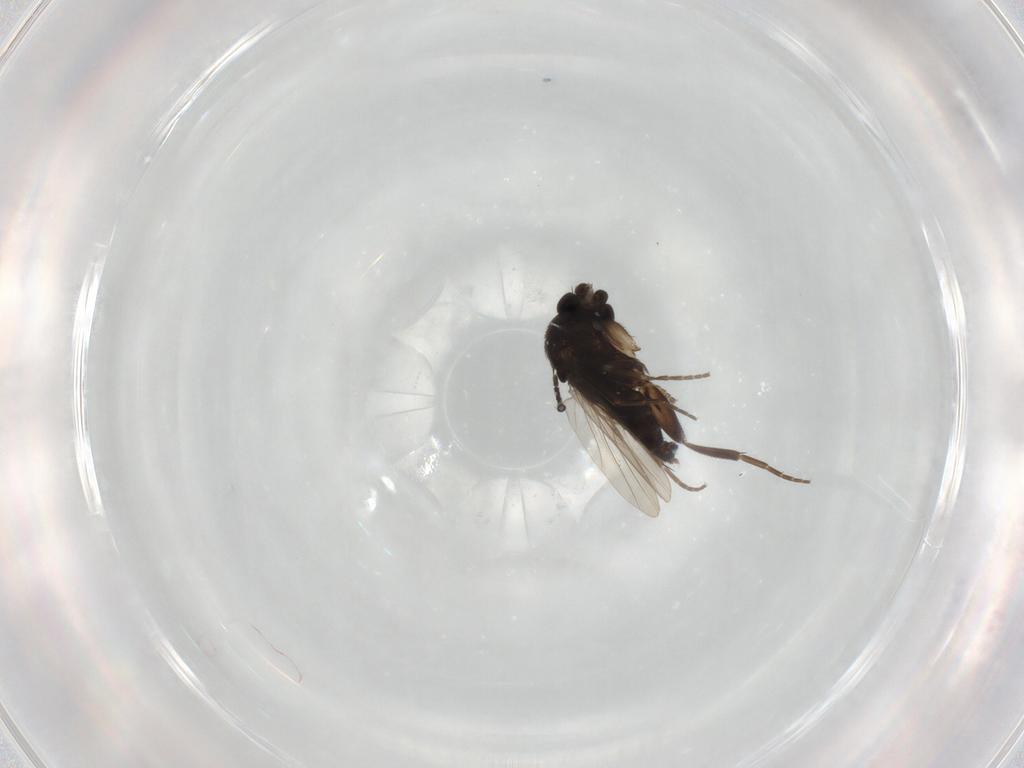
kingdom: Animalia
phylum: Arthropoda
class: Insecta
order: Diptera
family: Phoridae
